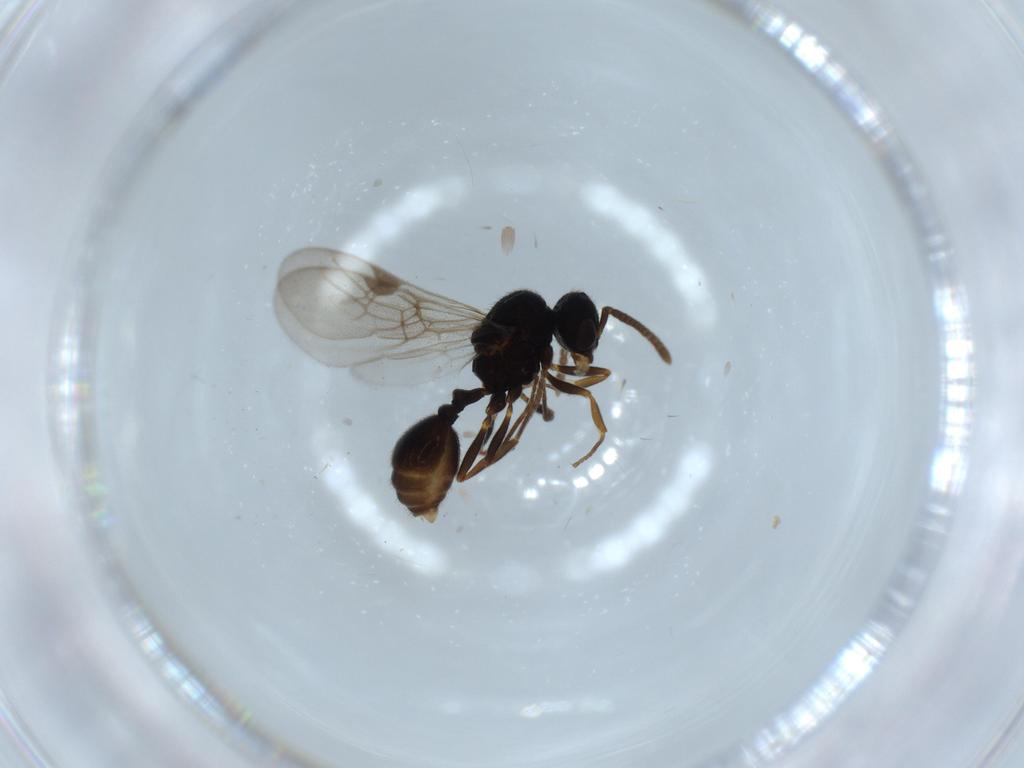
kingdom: Animalia
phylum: Arthropoda
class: Insecta
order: Hymenoptera
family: Formicidae
